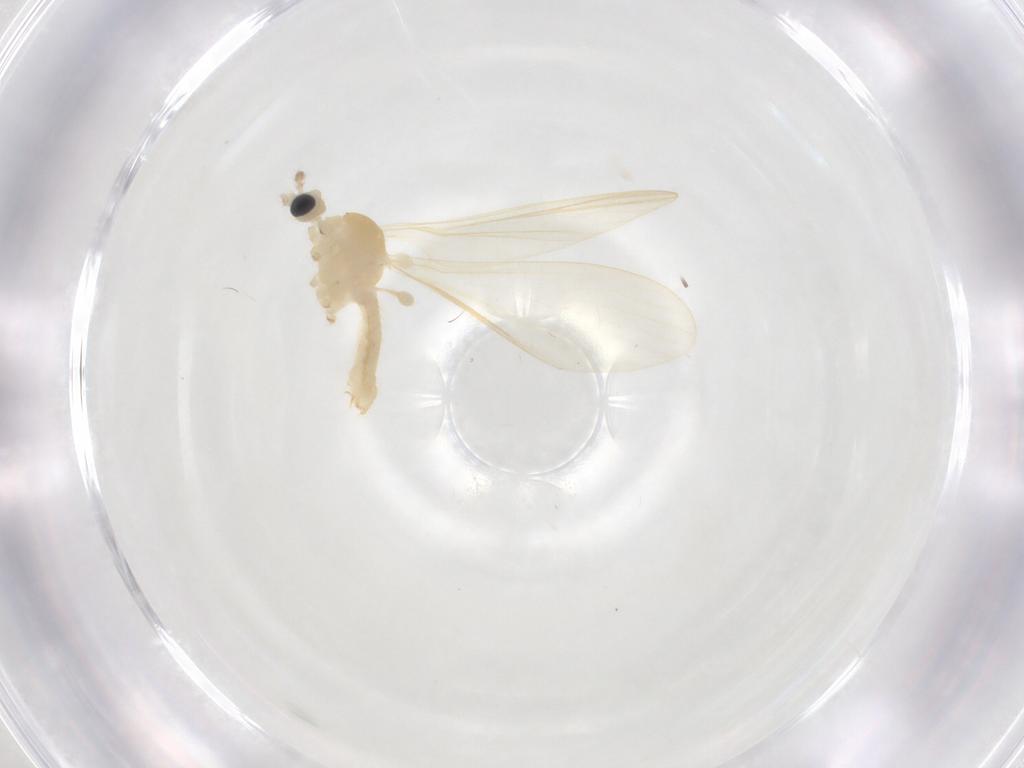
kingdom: Animalia
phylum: Arthropoda
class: Insecta
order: Diptera
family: Limoniidae
